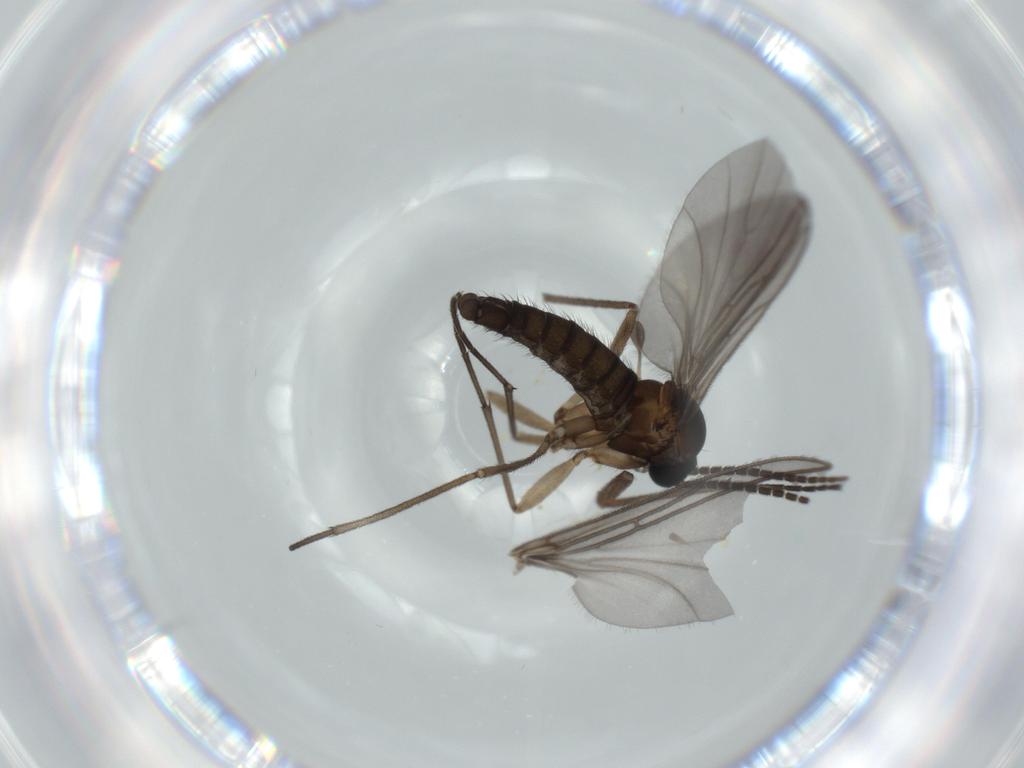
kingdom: Animalia
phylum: Arthropoda
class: Insecta
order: Diptera
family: Sciaridae
